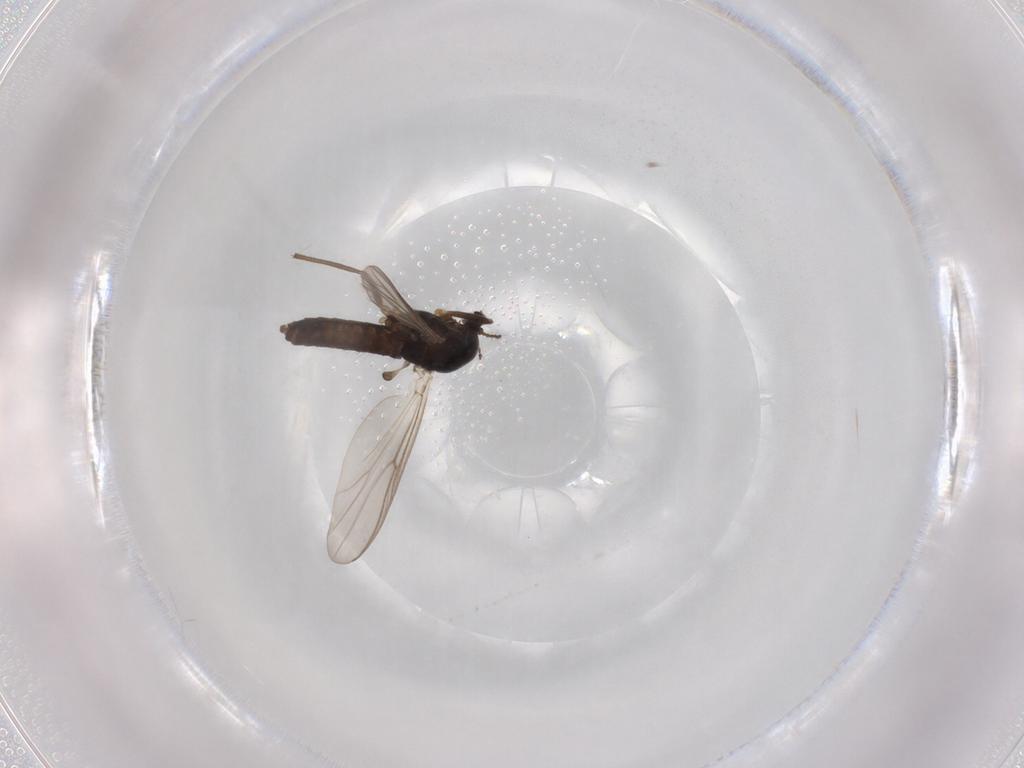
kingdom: Animalia
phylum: Arthropoda
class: Insecta
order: Diptera
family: Chironomidae
